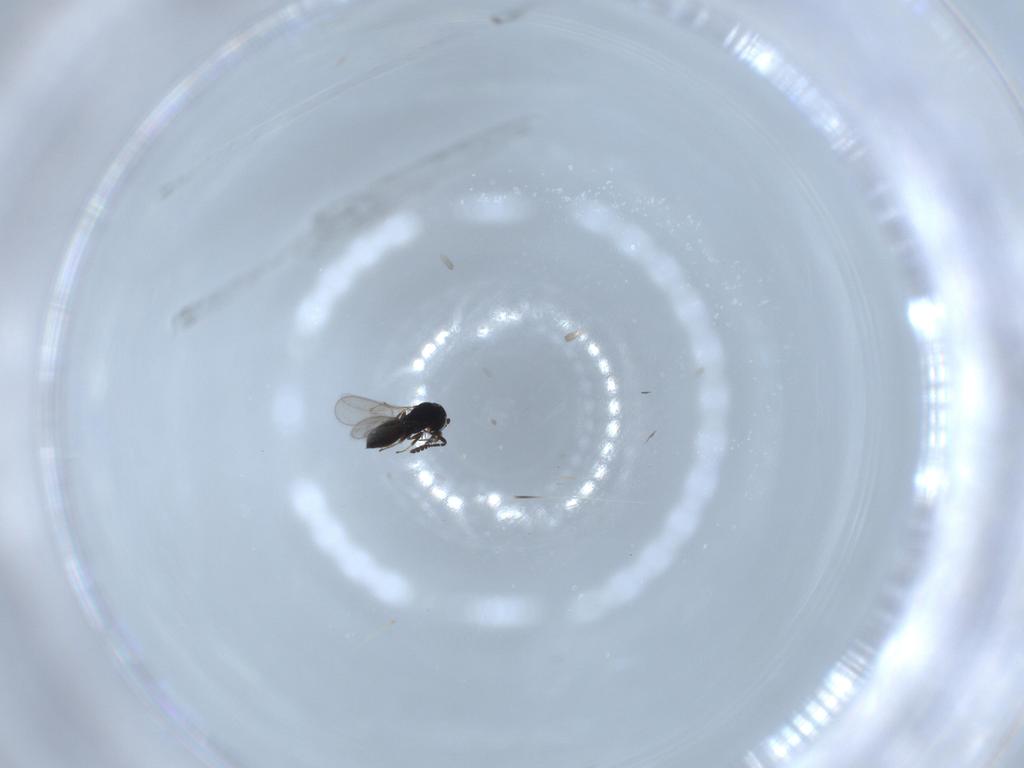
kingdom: Animalia
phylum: Arthropoda
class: Insecta
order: Hymenoptera
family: Scelionidae
